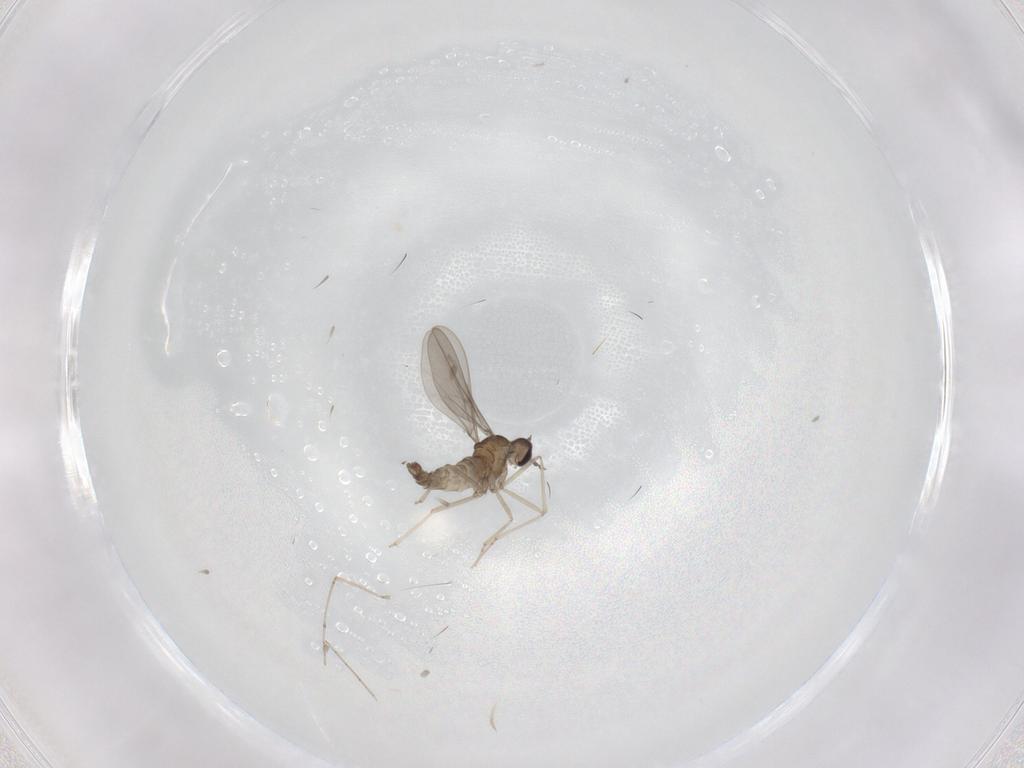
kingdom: Animalia
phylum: Arthropoda
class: Insecta
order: Diptera
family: Cecidomyiidae
